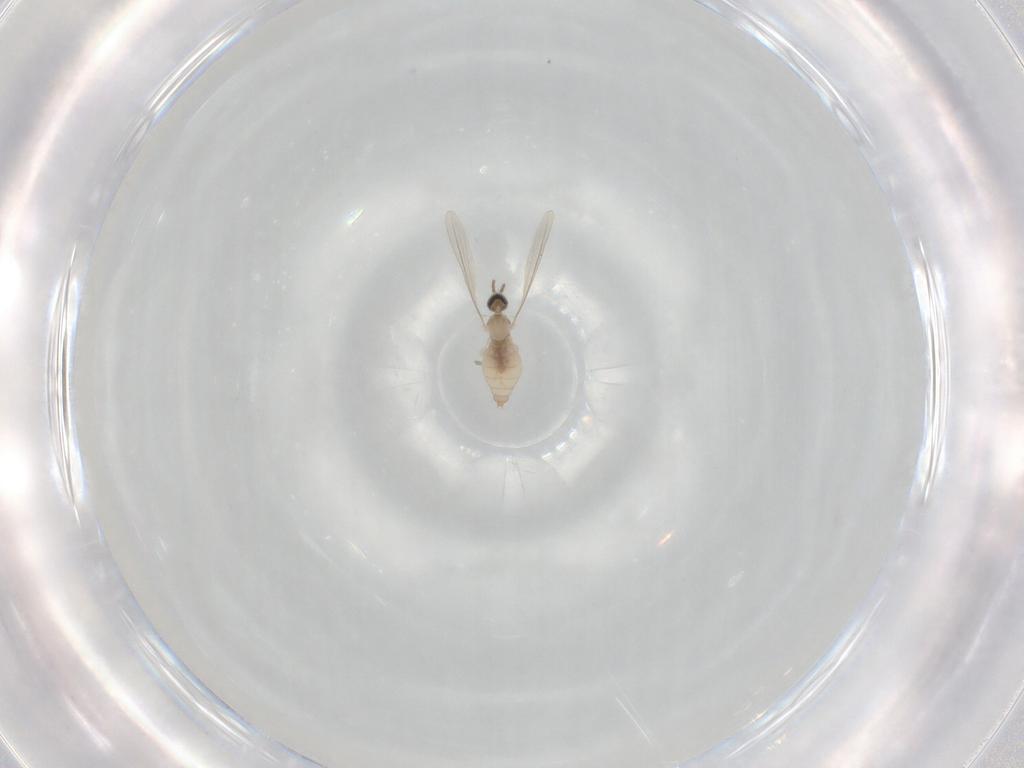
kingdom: Animalia
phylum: Arthropoda
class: Insecta
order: Diptera
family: Cecidomyiidae
